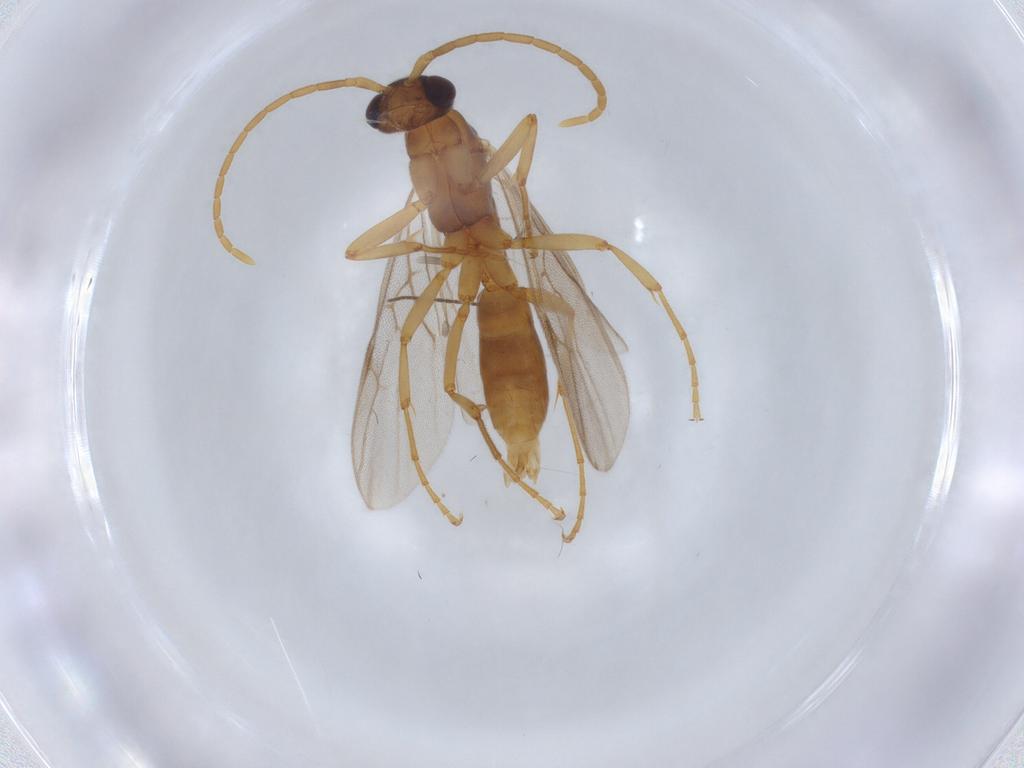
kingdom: Animalia
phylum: Arthropoda
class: Insecta
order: Hymenoptera
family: Formicidae
